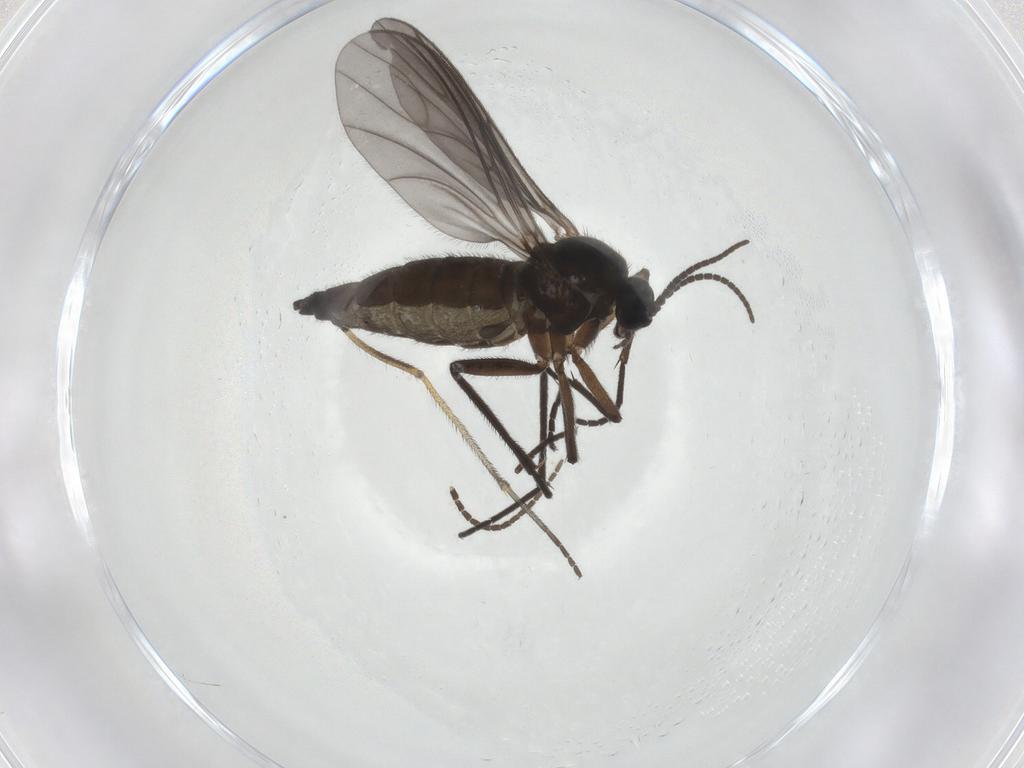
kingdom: Animalia
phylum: Arthropoda
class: Insecta
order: Diptera
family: Sciaridae
